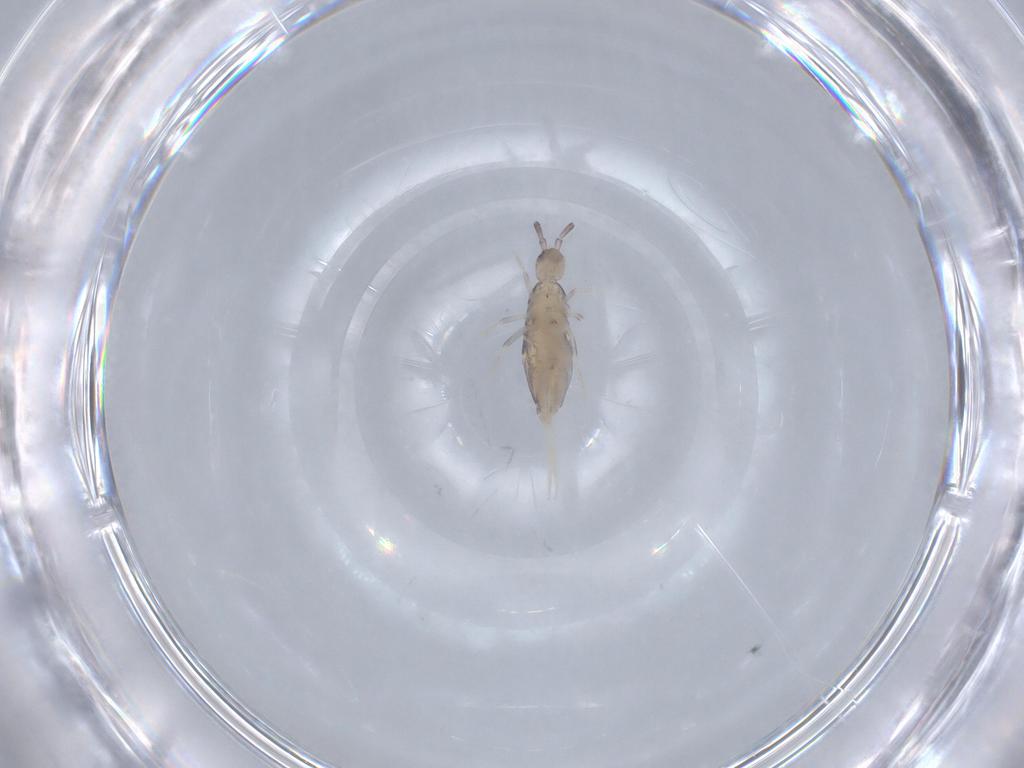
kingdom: Animalia
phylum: Arthropoda
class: Collembola
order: Poduromorpha
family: Hypogastruridae
